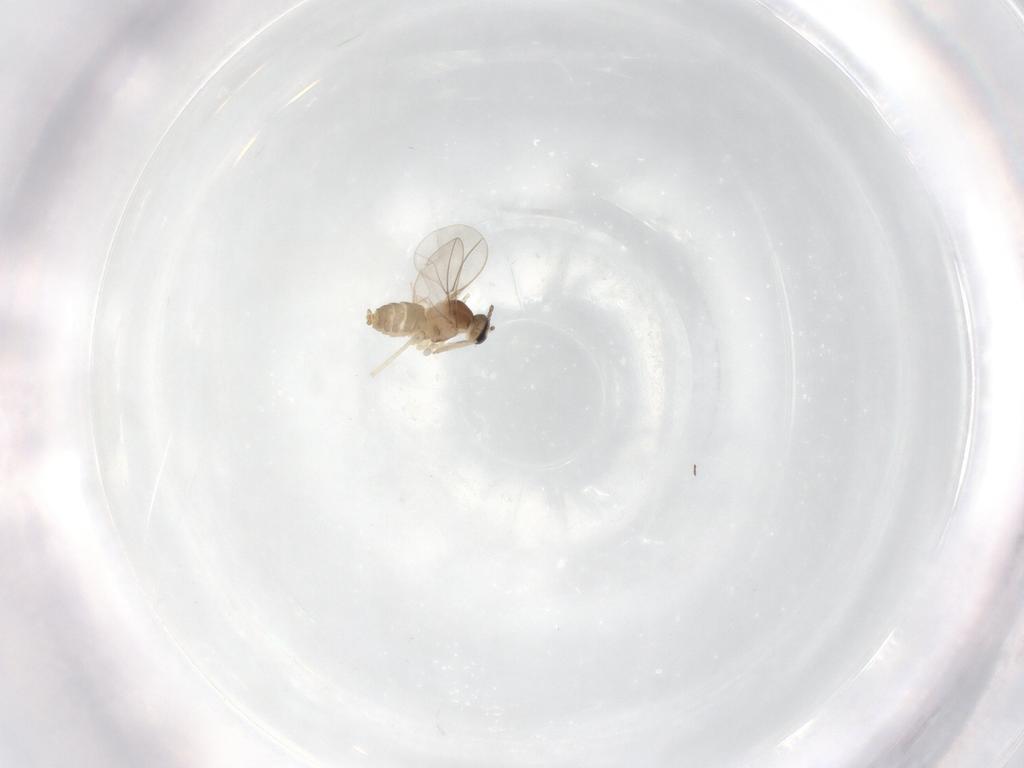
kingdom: Animalia
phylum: Arthropoda
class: Insecta
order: Diptera
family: Cecidomyiidae
